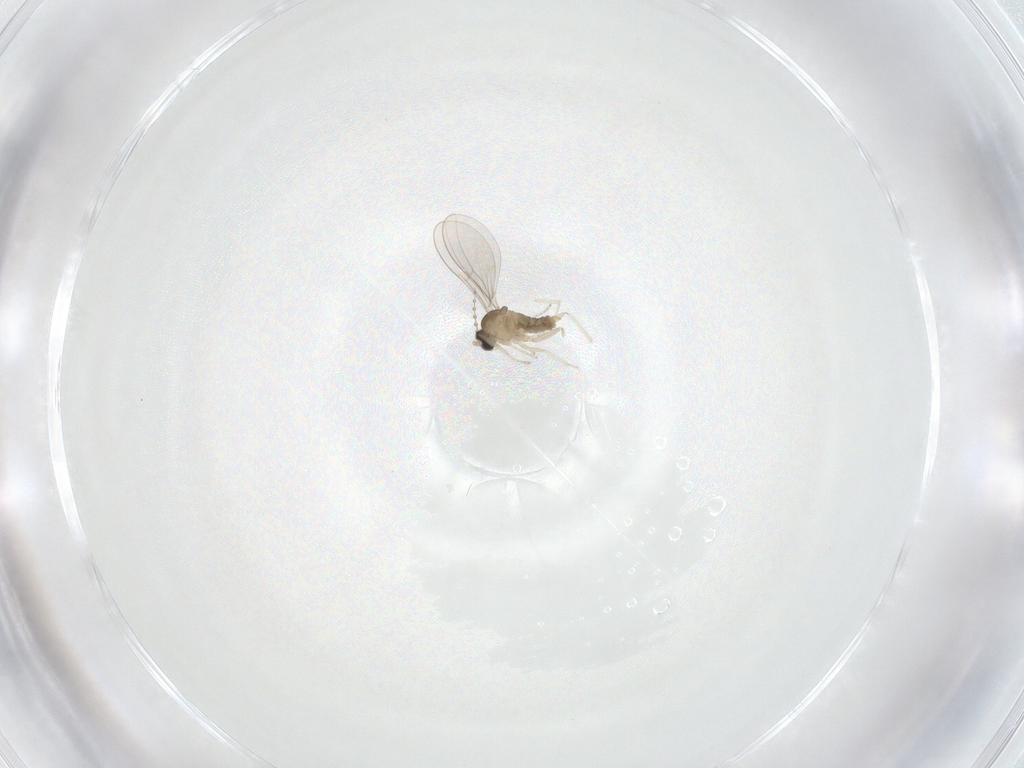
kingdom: Animalia
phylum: Arthropoda
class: Insecta
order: Diptera
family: Cecidomyiidae
